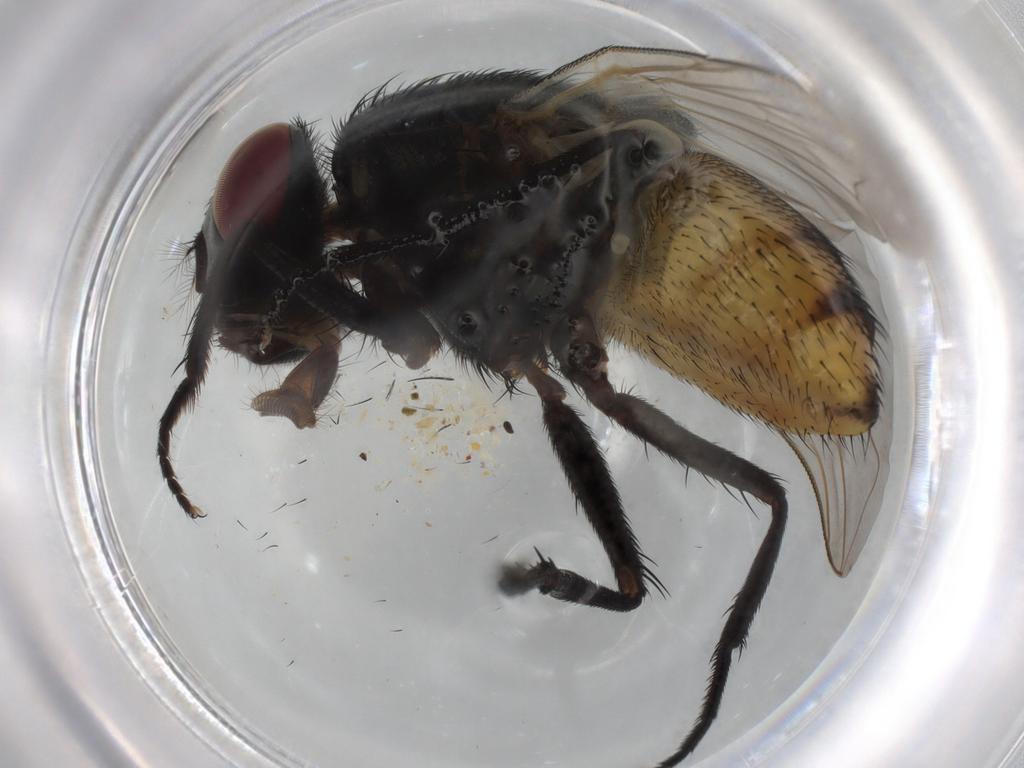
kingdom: Animalia
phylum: Arthropoda
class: Insecta
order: Diptera
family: Muscidae
